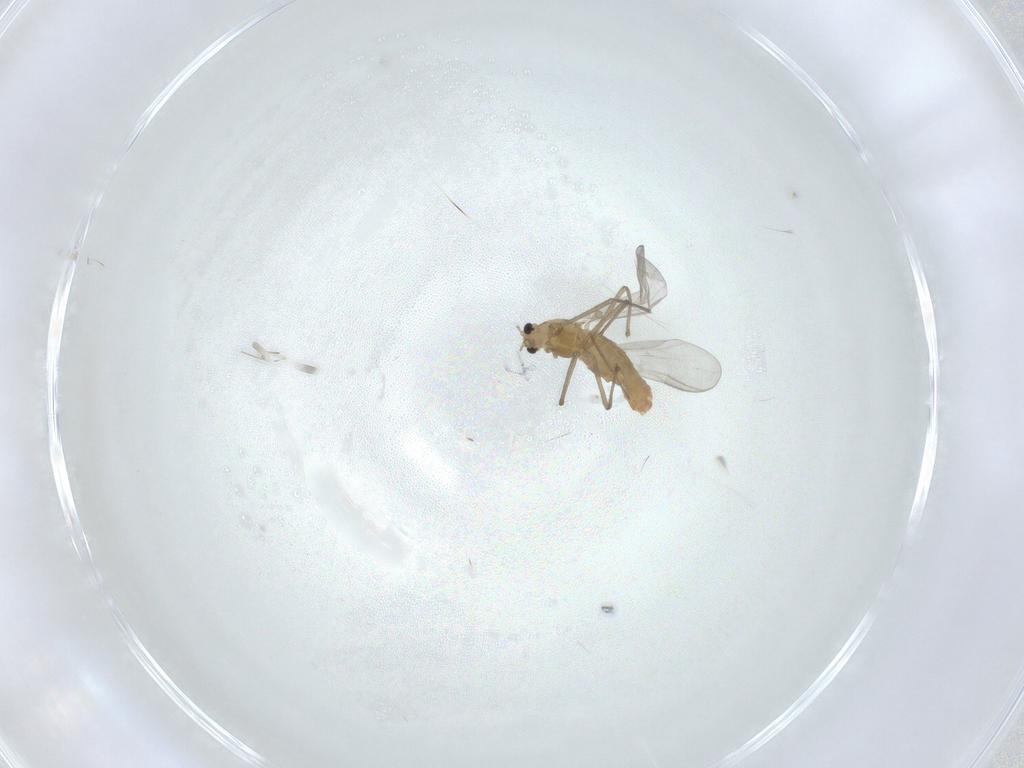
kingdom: Animalia
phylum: Arthropoda
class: Insecta
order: Diptera
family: Chironomidae
